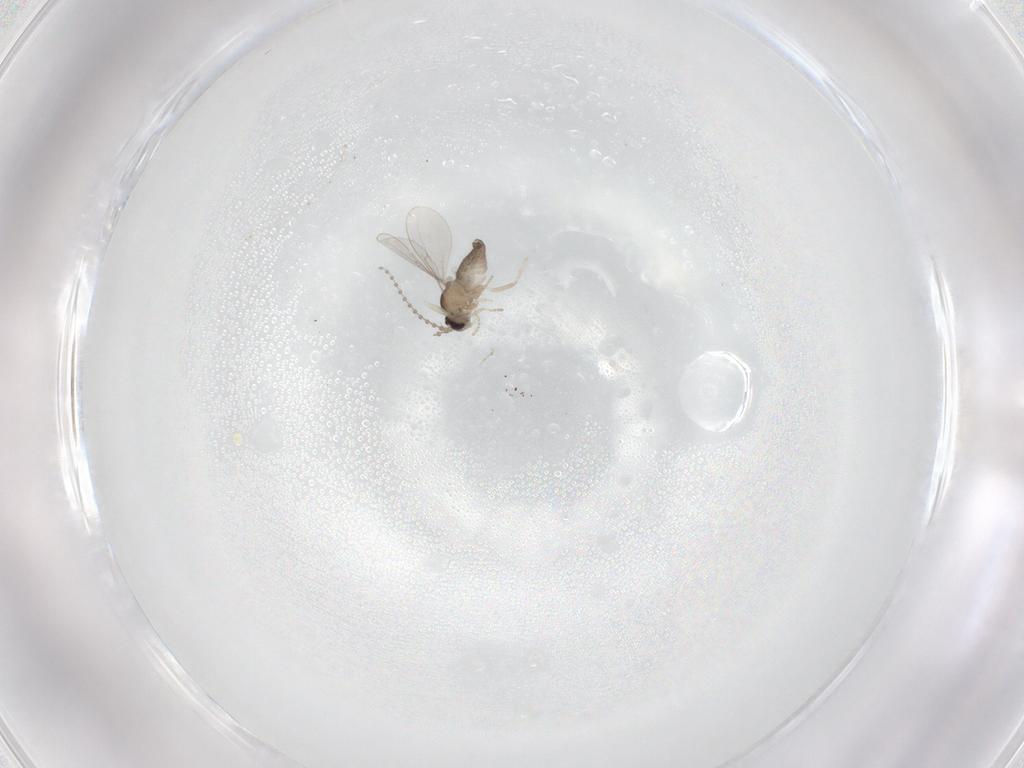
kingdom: Animalia
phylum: Arthropoda
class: Insecta
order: Diptera
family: Cecidomyiidae
